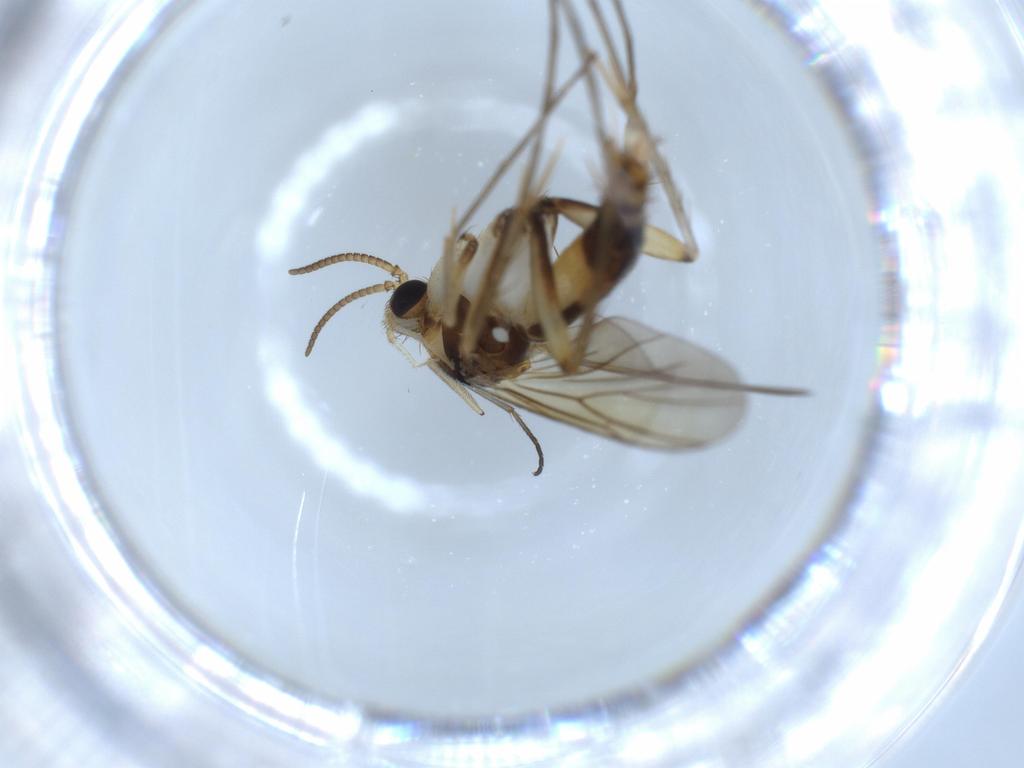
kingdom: Animalia
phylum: Arthropoda
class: Insecta
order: Diptera
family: Mycetophilidae
